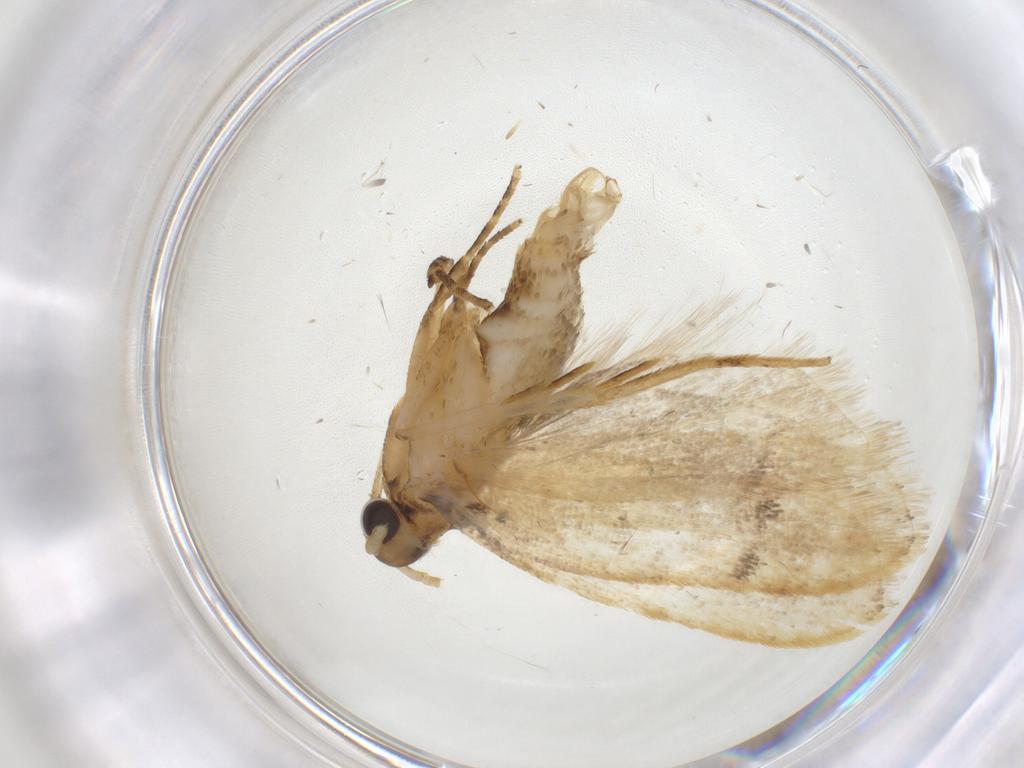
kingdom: Animalia
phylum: Arthropoda
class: Insecta
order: Lepidoptera
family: Lecithoceridae
